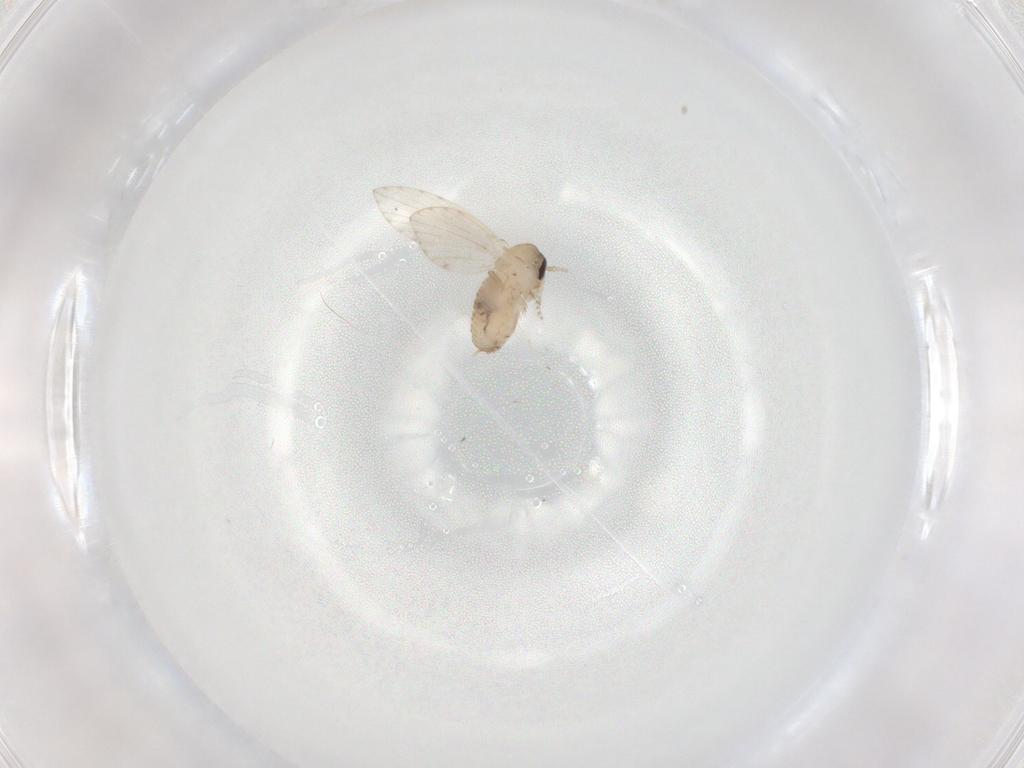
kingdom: Animalia
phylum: Arthropoda
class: Insecta
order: Diptera
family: Psychodidae
